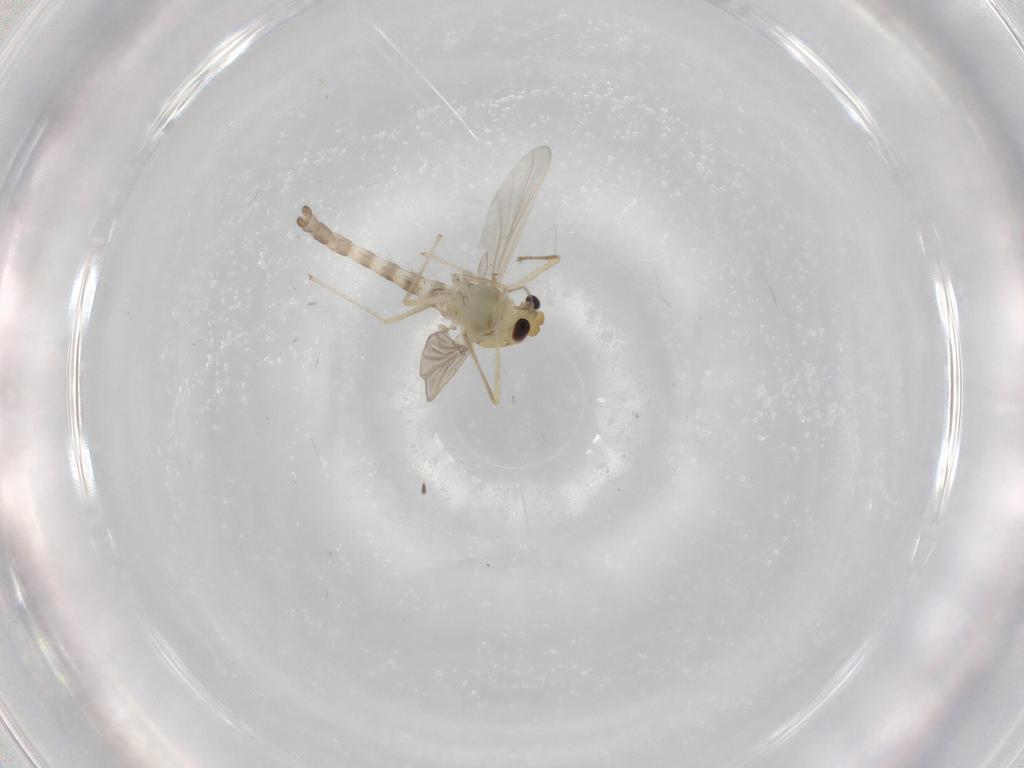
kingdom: Animalia
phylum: Arthropoda
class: Insecta
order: Diptera
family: Chironomidae
